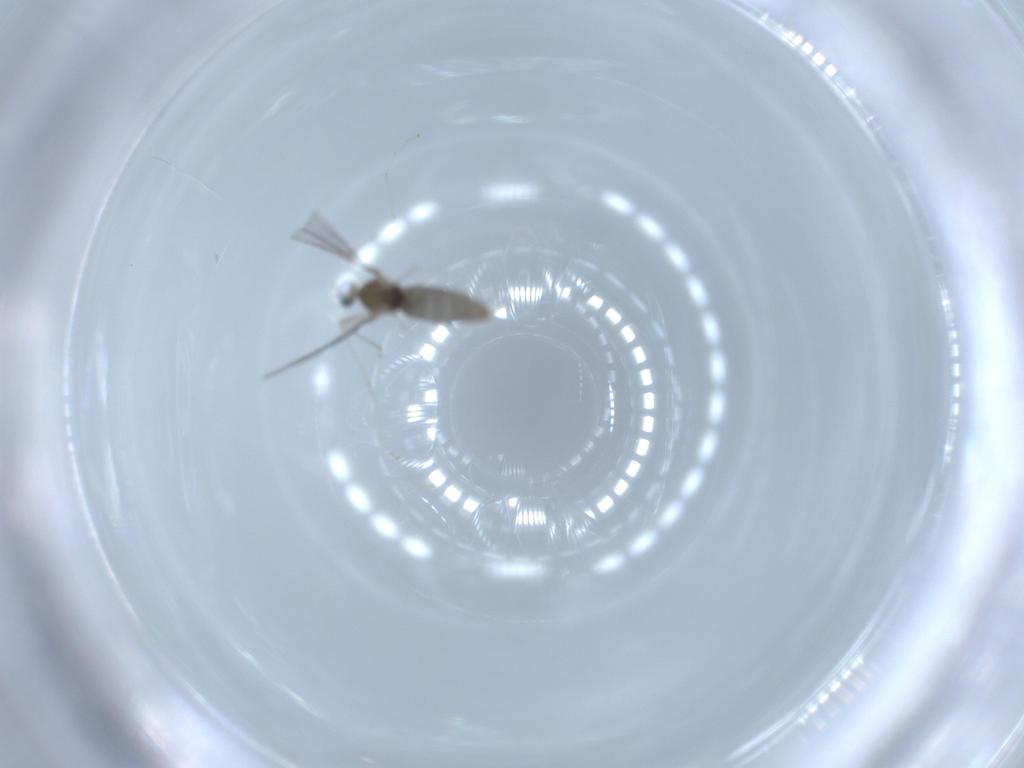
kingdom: Animalia
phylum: Arthropoda
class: Insecta
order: Diptera
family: Cecidomyiidae
